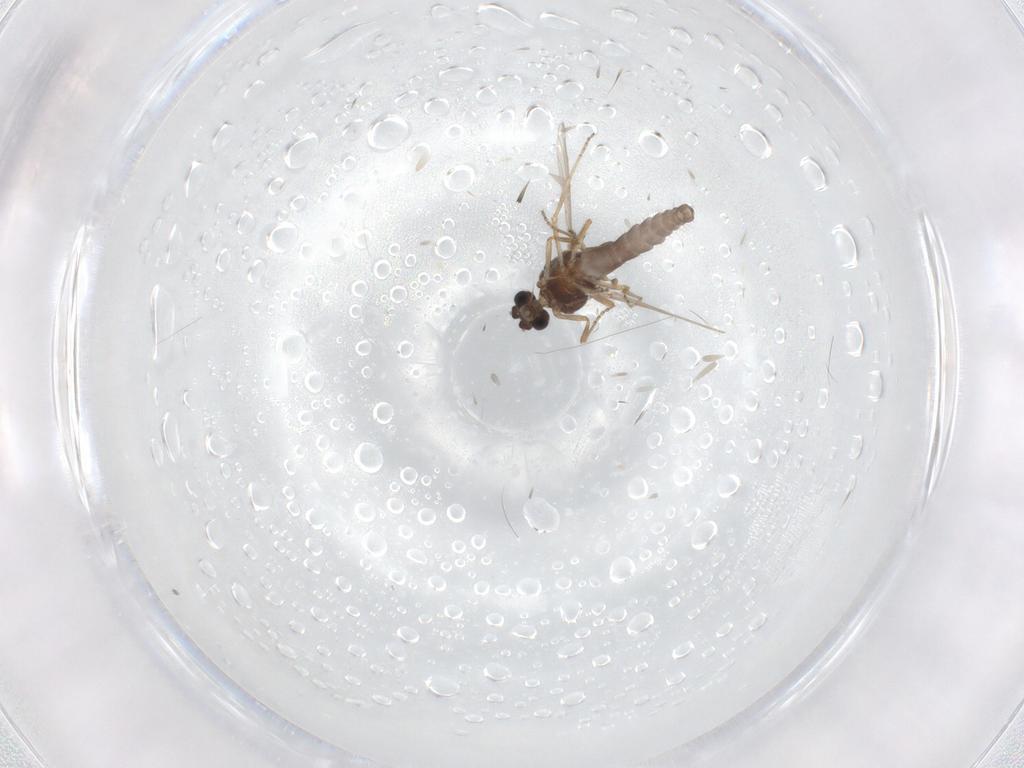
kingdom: Animalia
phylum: Arthropoda
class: Insecta
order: Diptera
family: Ceratopogonidae
